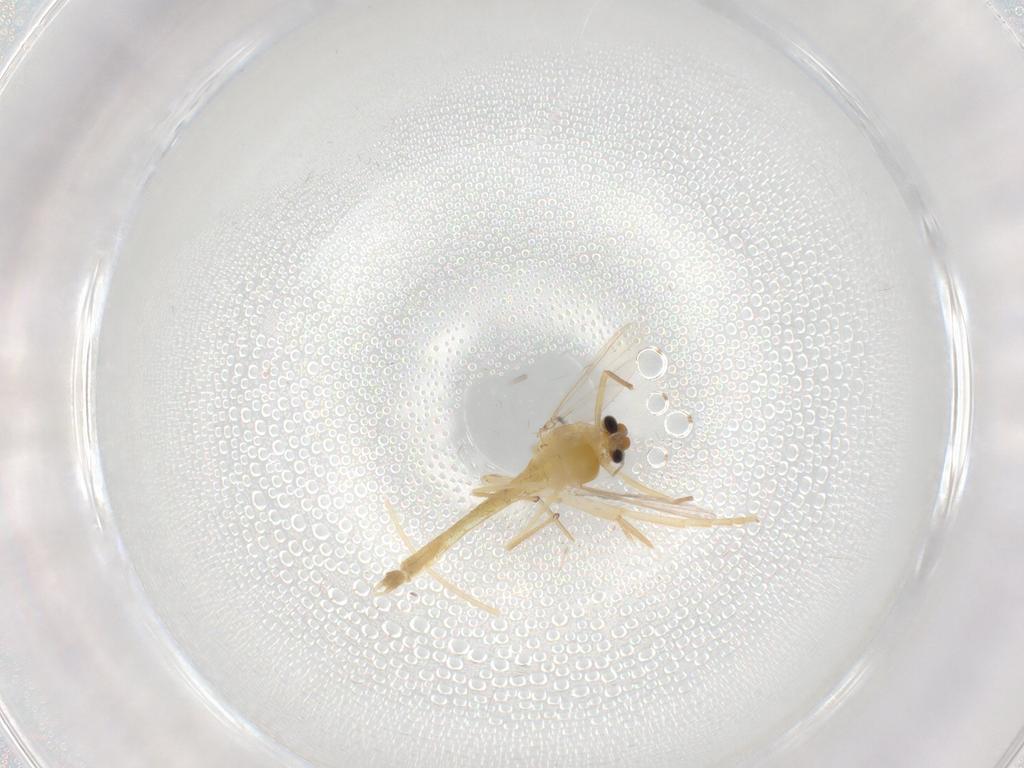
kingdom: Animalia
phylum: Arthropoda
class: Insecta
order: Diptera
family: Chironomidae
